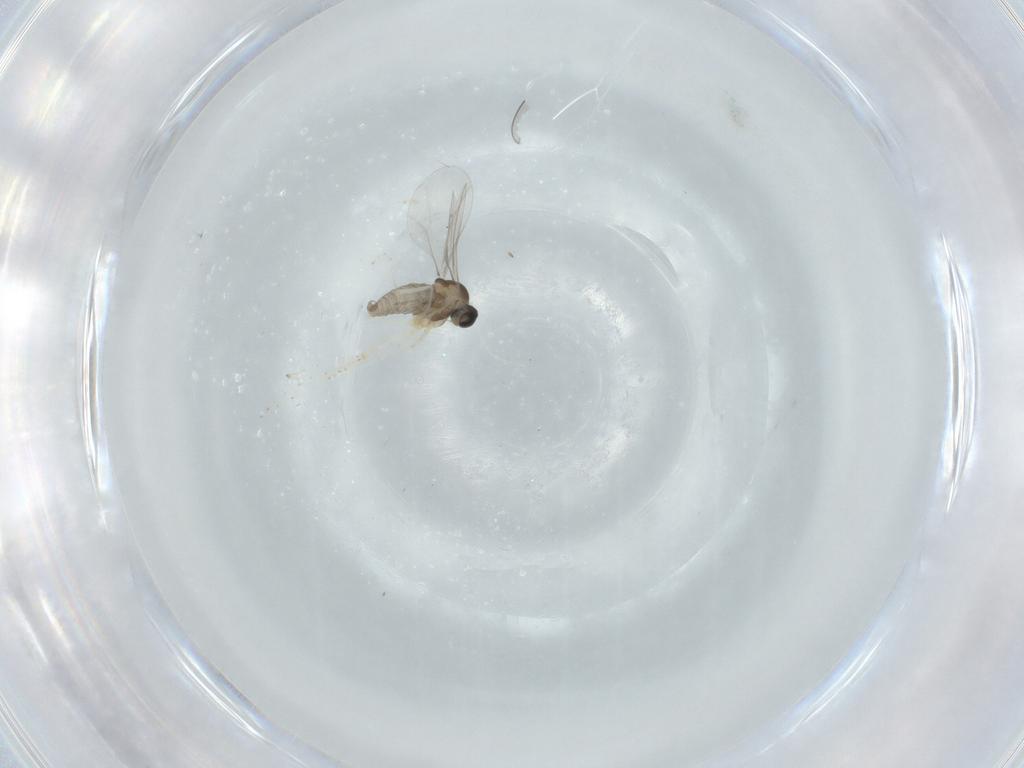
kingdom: Animalia
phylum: Arthropoda
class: Insecta
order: Diptera
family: Cecidomyiidae
